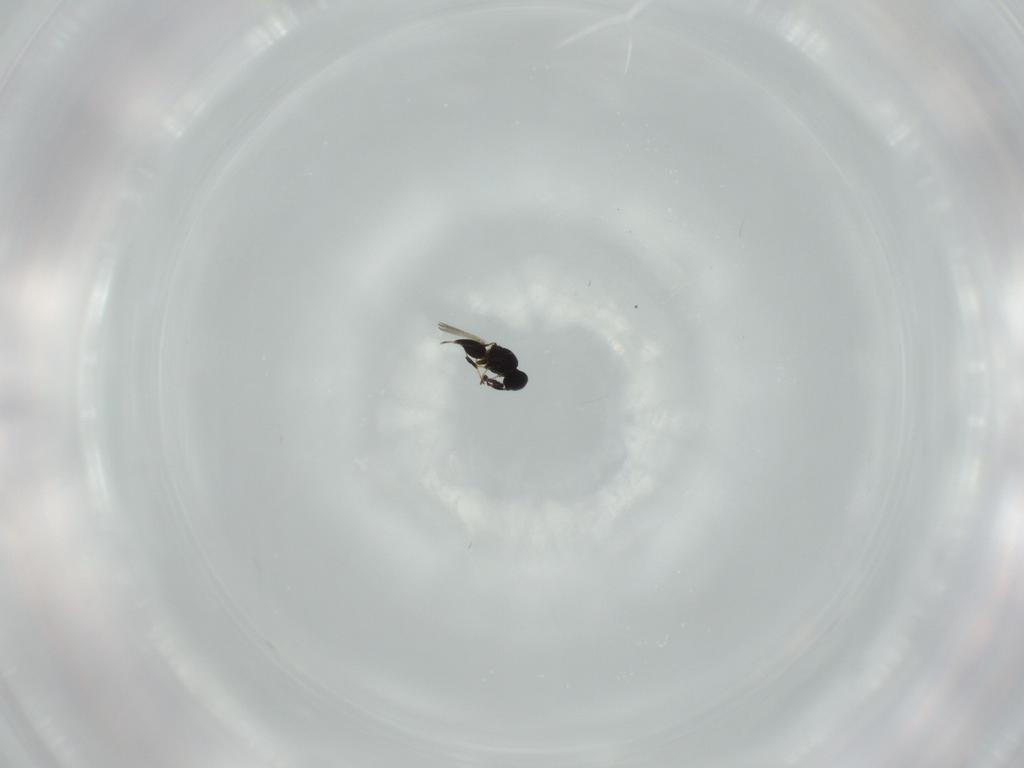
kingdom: Animalia
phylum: Arthropoda
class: Insecta
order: Hymenoptera
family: Mymaridae
